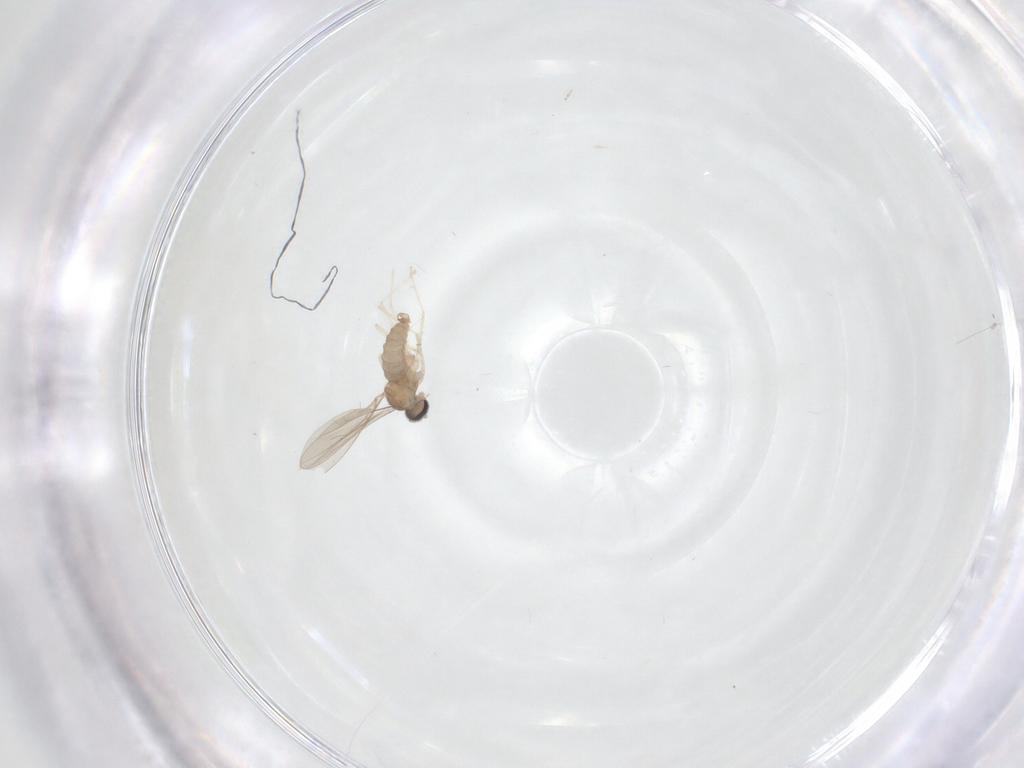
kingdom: Animalia
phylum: Arthropoda
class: Insecta
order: Diptera
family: Cecidomyiidae
